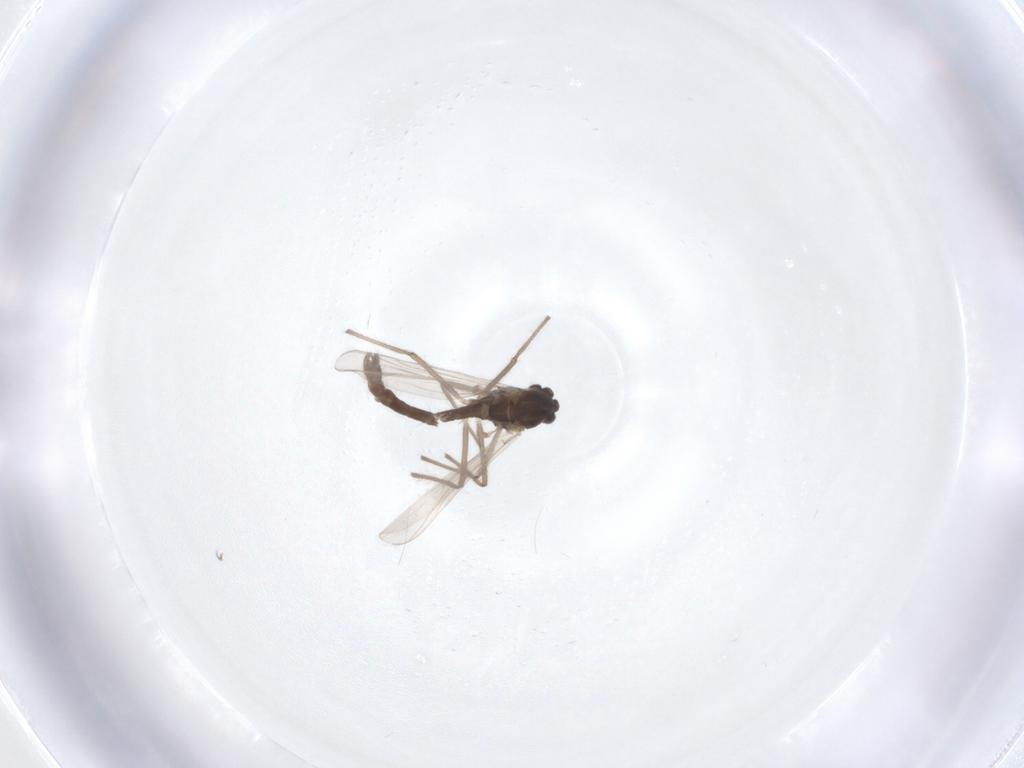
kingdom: Animalia
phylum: Arthropoda
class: Insecta
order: Diptera
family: Chironomidae
